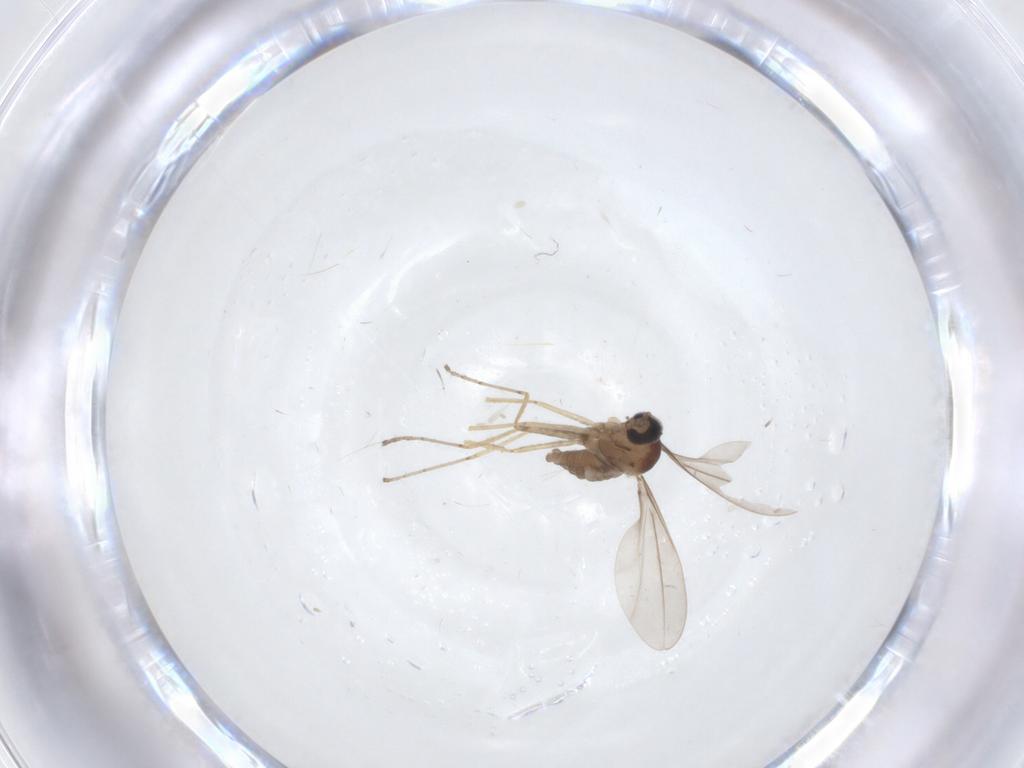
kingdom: Animalia
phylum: Arthropoda
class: Insecta
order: Diptera
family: Cecidomyiidae
